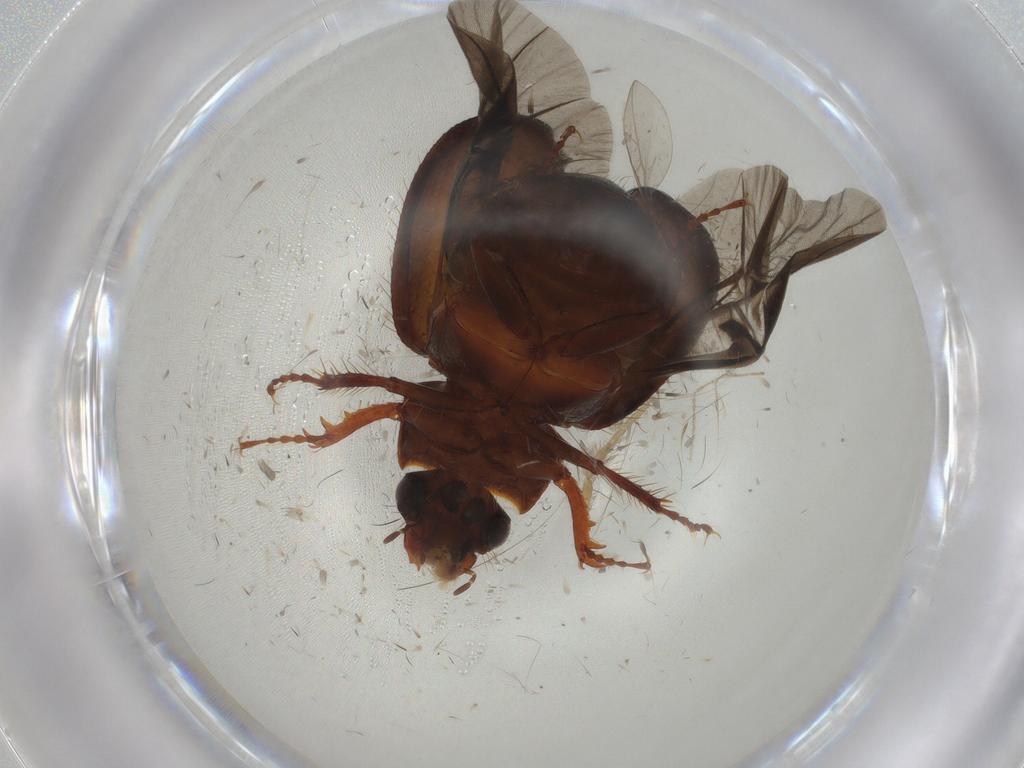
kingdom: Animalia
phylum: Arthropoda
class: Insecta
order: Coleoptera
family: Hybosoridae
